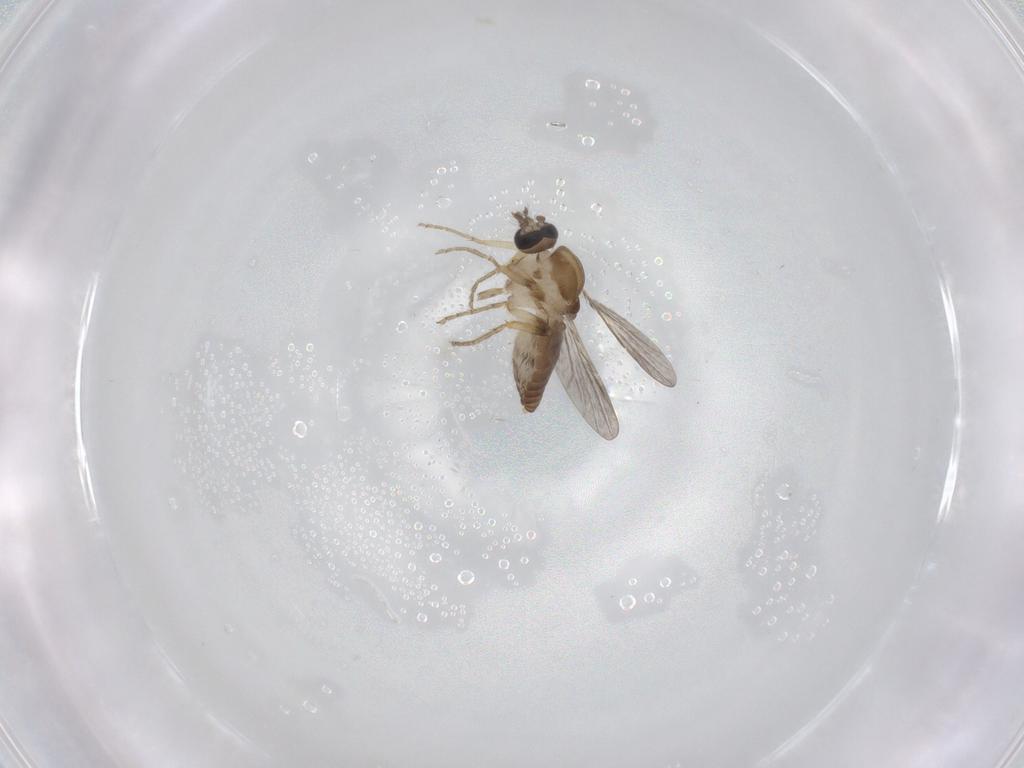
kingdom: Animalia
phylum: Arthropoda
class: Insecta
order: Diptera
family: Ceratopogonidae
